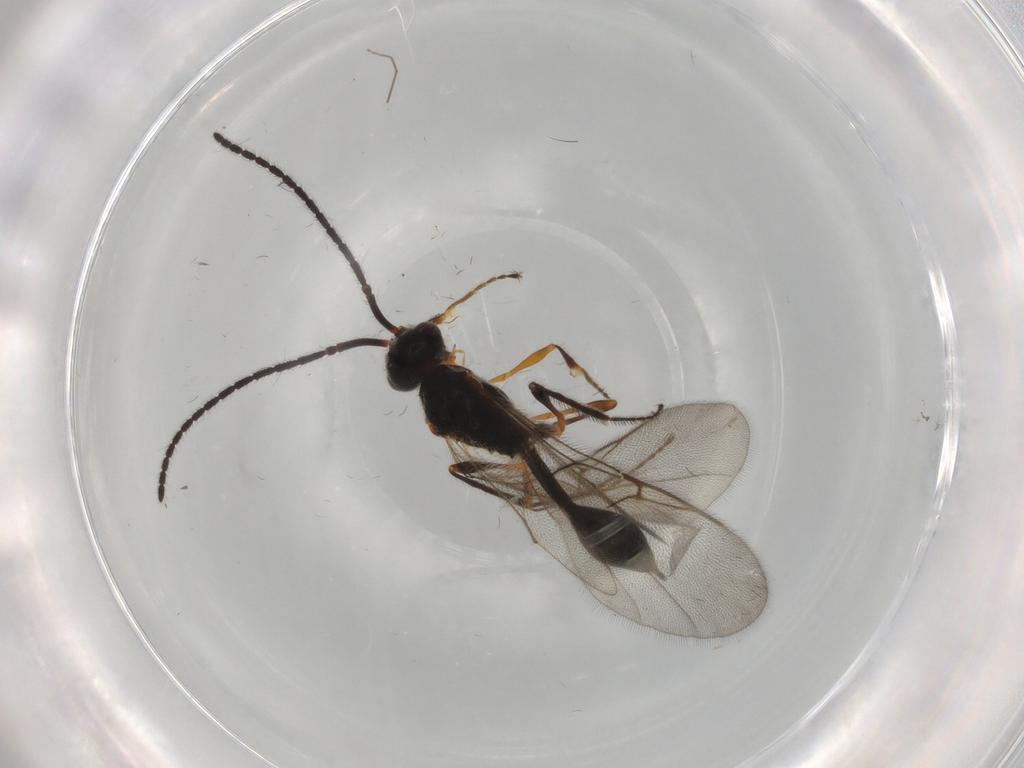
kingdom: Animalia
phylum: Arthropoda
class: Insecta
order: Hymenoptera
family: Diapriidae
